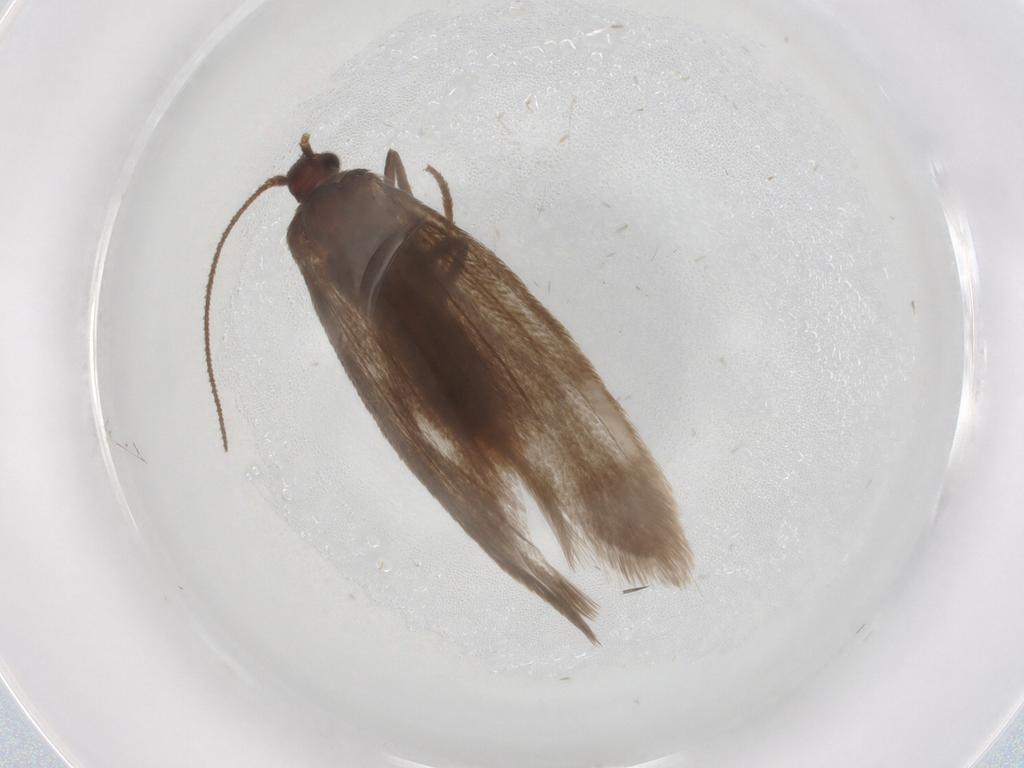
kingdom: Animalia
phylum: Arthropoda
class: Insecta
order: Lepidoptera
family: Limacodidae
